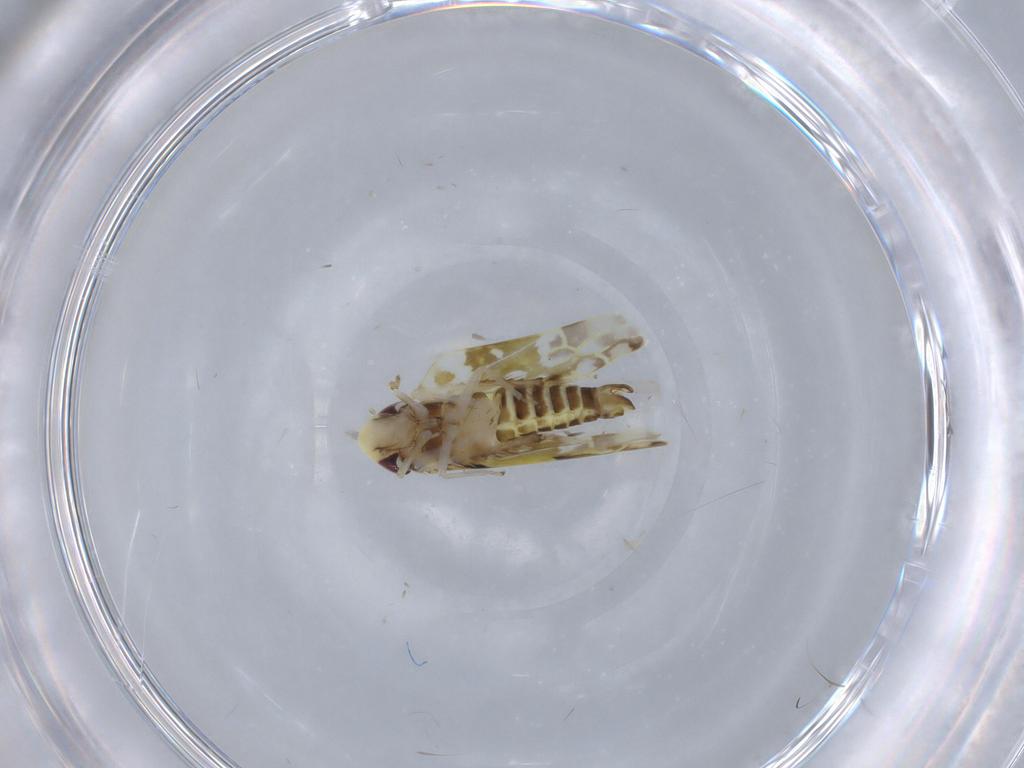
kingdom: Animalia
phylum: Arthropoda
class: Insecta
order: Hemiptera
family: Cicadellidae
